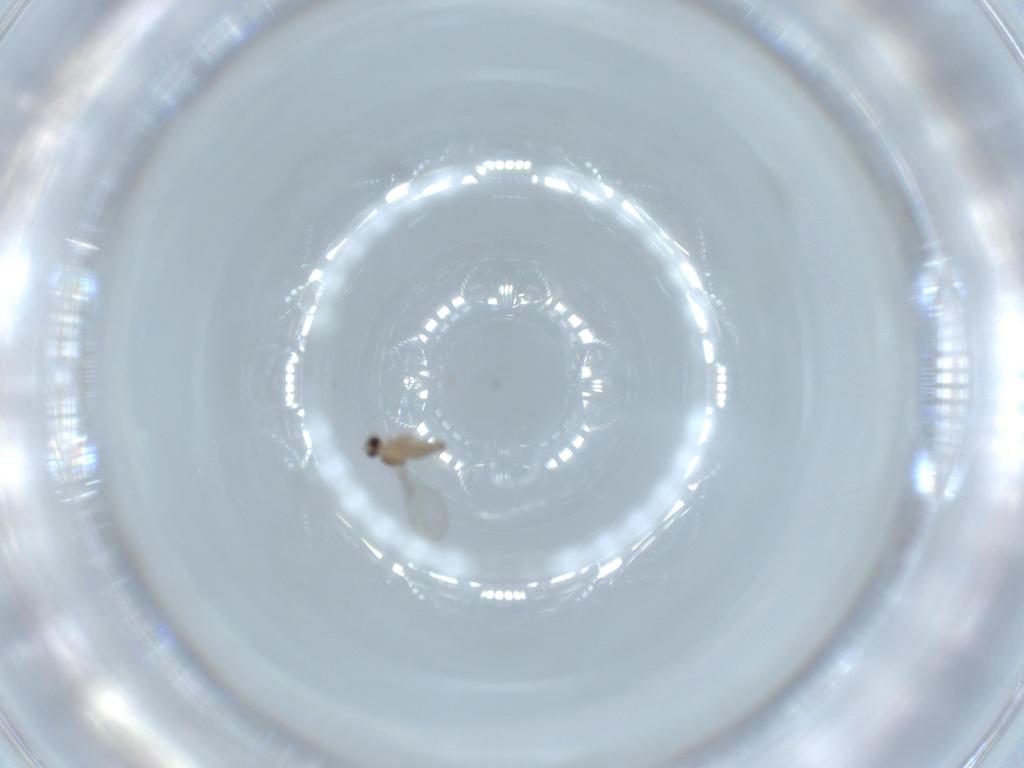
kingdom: Animalia
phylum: Arthropoda
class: Insecta
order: Diptera
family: Cecidomyiidae
